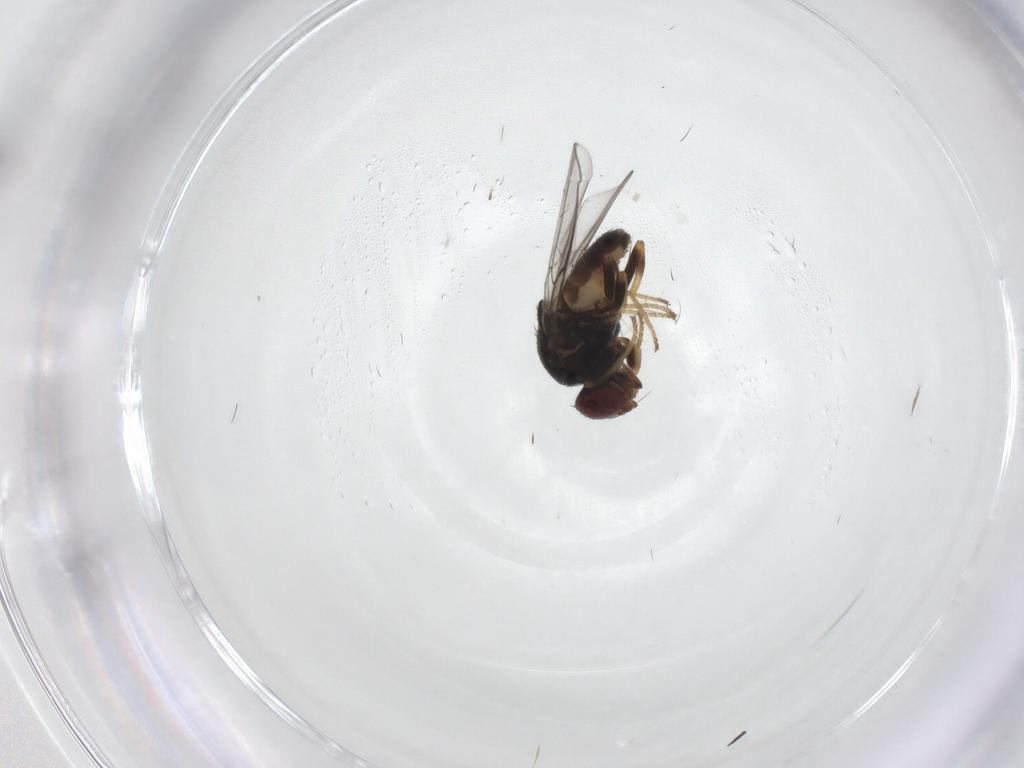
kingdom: Animalia
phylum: Arthropoda
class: Insecta
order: Diptera
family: Chloropidae
